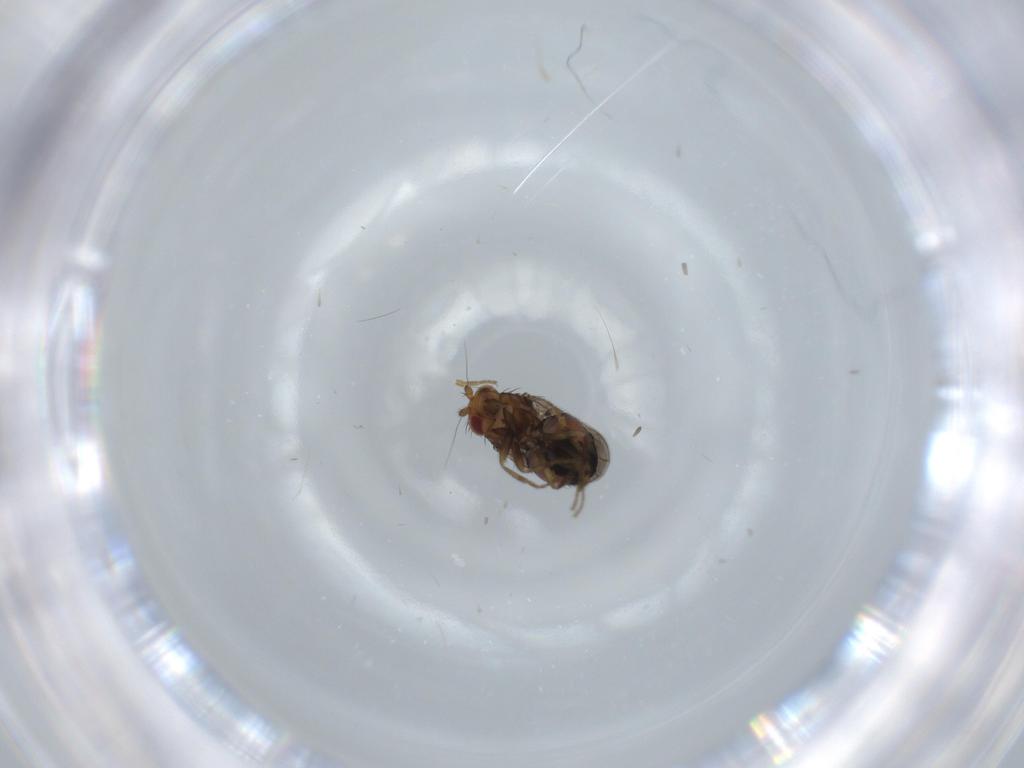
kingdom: Animalia
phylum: Arthropoda
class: Insecta
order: Diptera
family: Sphaeroceridae
